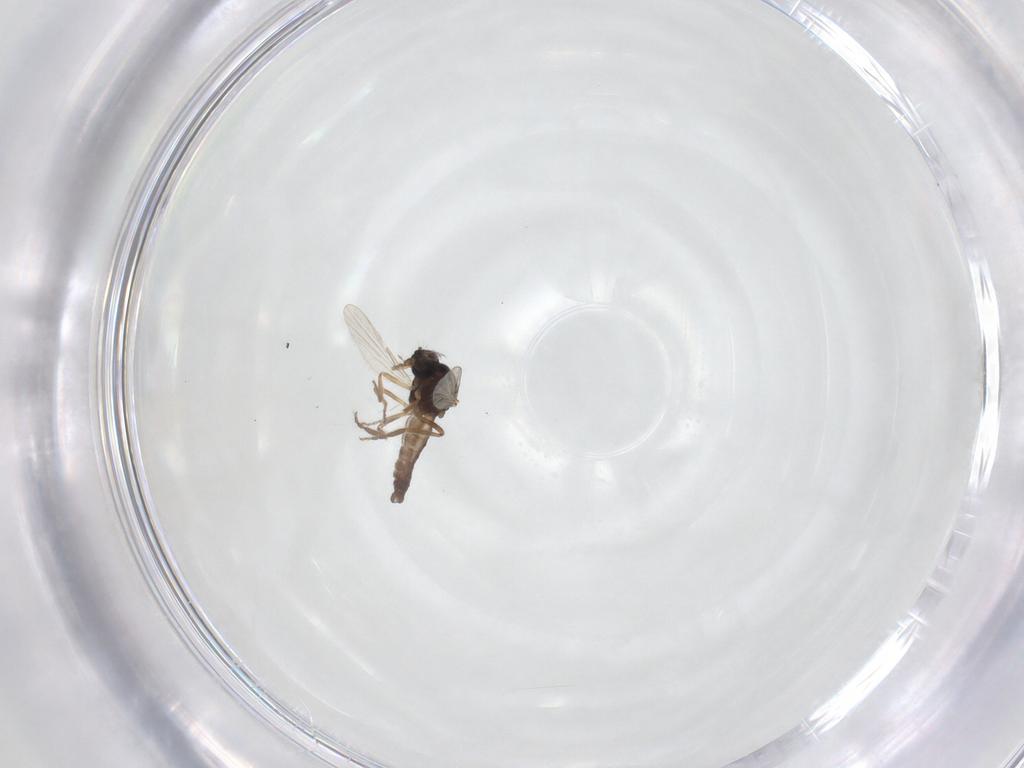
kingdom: Animalia
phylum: Arthropoda
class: Insecta
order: Diptera
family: Ceratopogonidae
